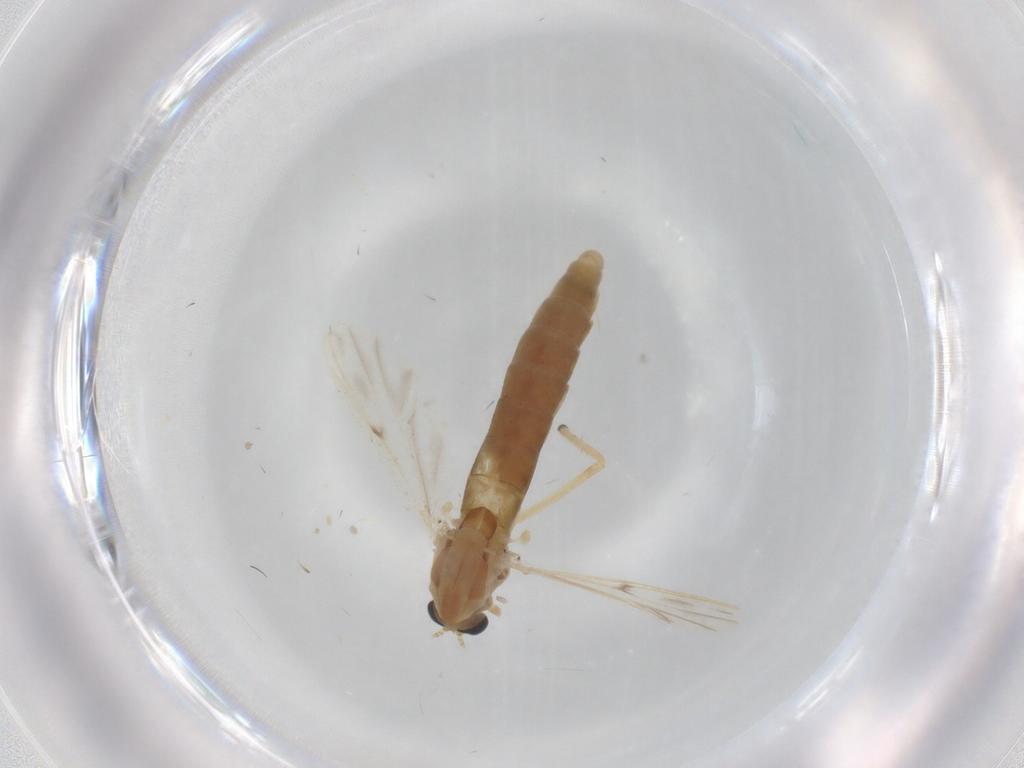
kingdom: Animalia
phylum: Arthropoda
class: Insecta
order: Diptera
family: Chironomidae
